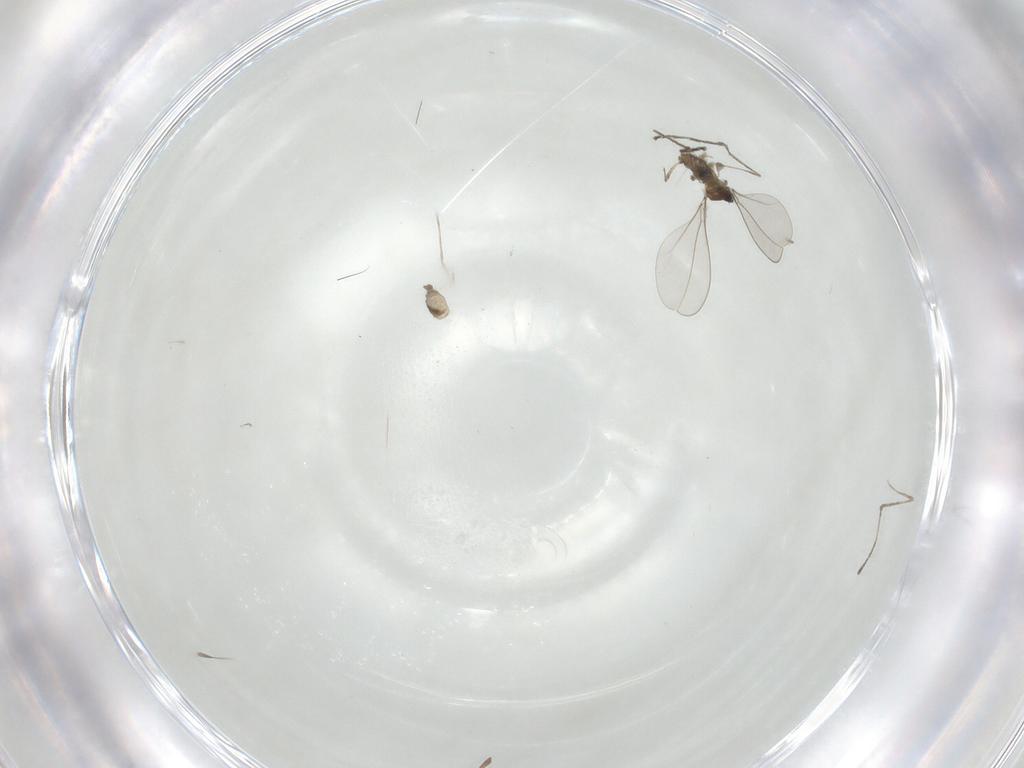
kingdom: Animalia
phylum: Arthropoda
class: Insecta
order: Diptera
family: Cecidomyiidae
